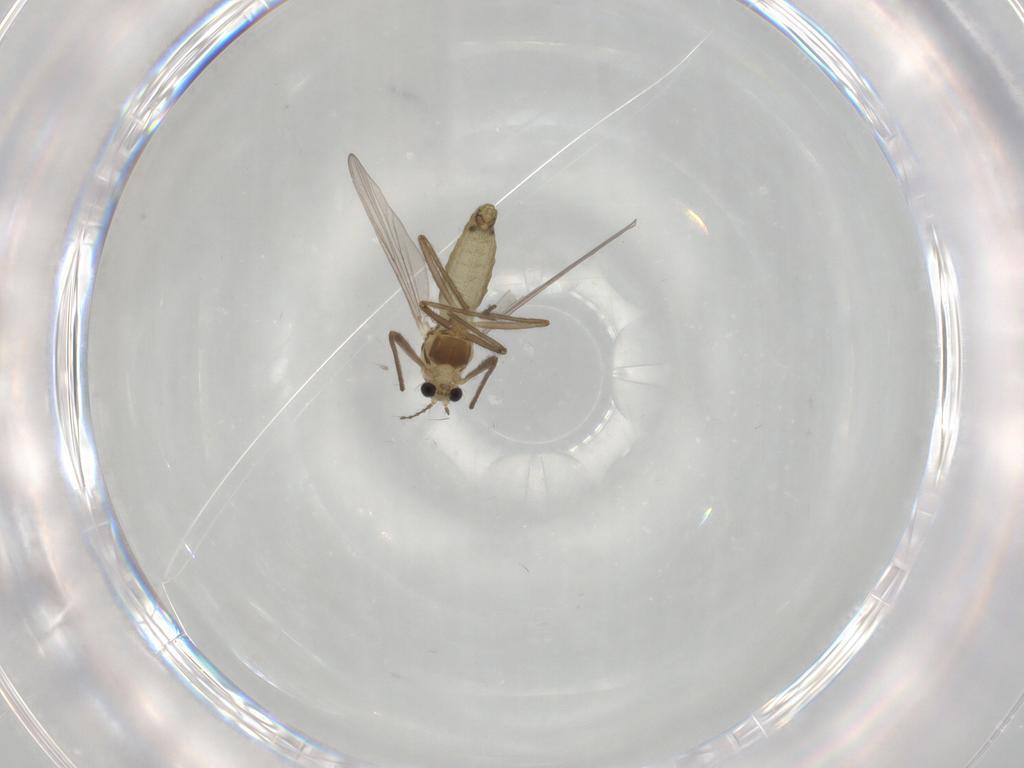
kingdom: Animalia
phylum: Arthropoda
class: Insecta
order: Diptera
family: Chironomidae
